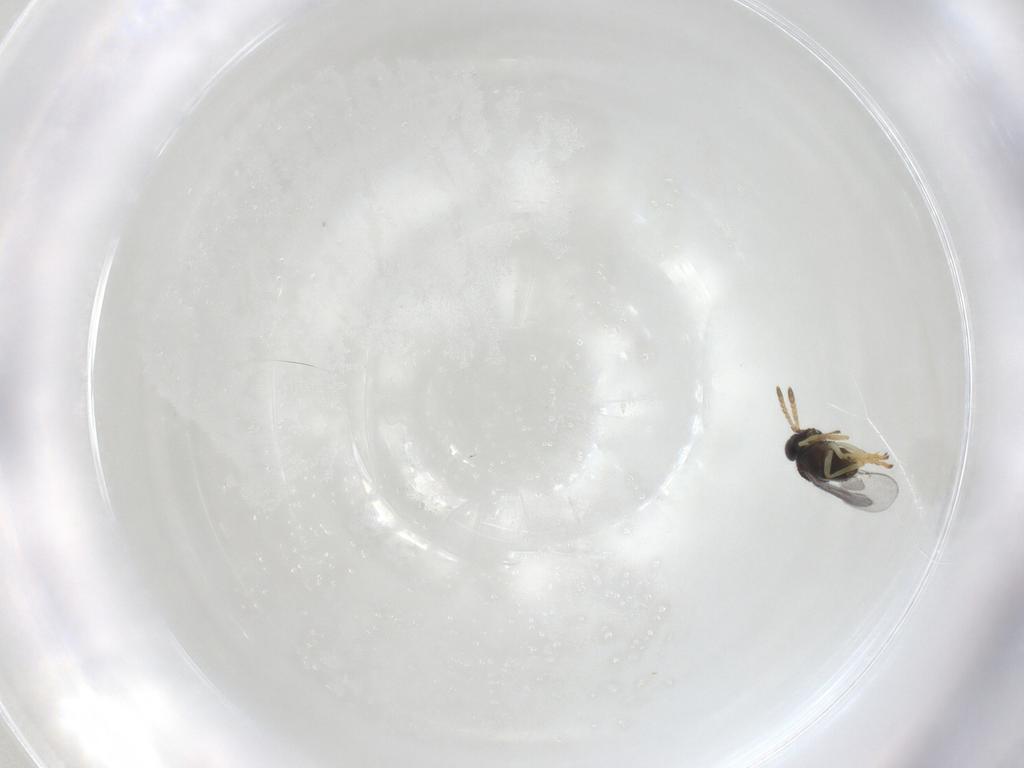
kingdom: Animalia
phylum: Arthropoda
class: Insecta
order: Hymenoptera
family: Encyrtidae
